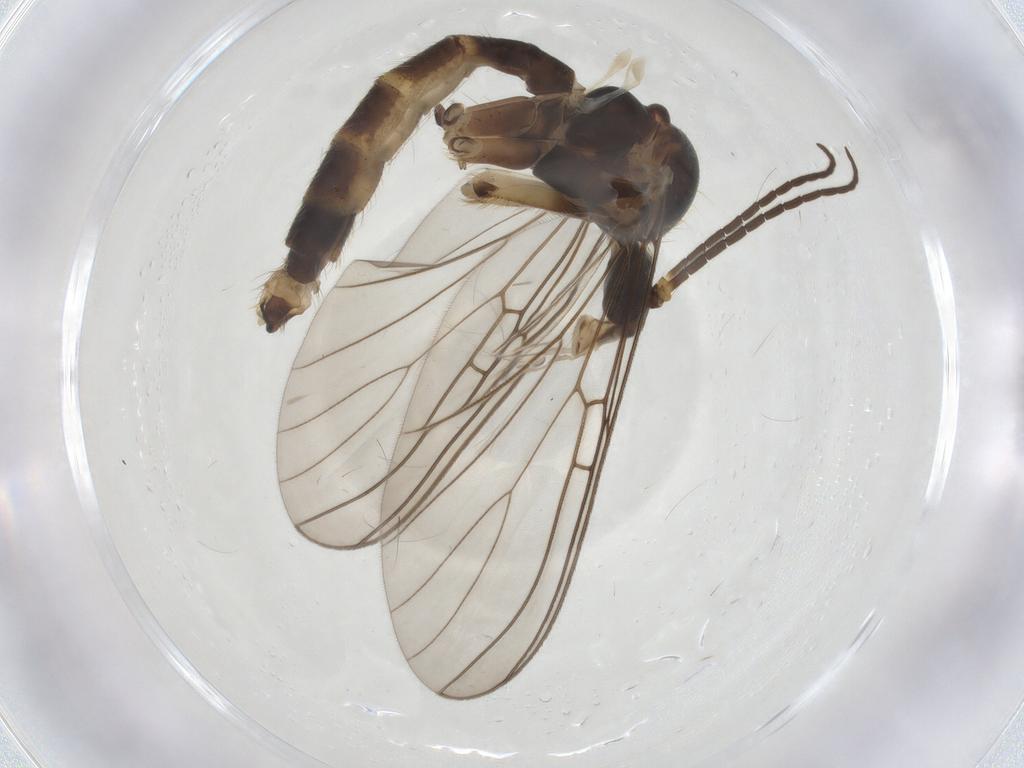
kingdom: Animalia
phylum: Arthropoda
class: Insecta
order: Diptera
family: Mycetophilidae
